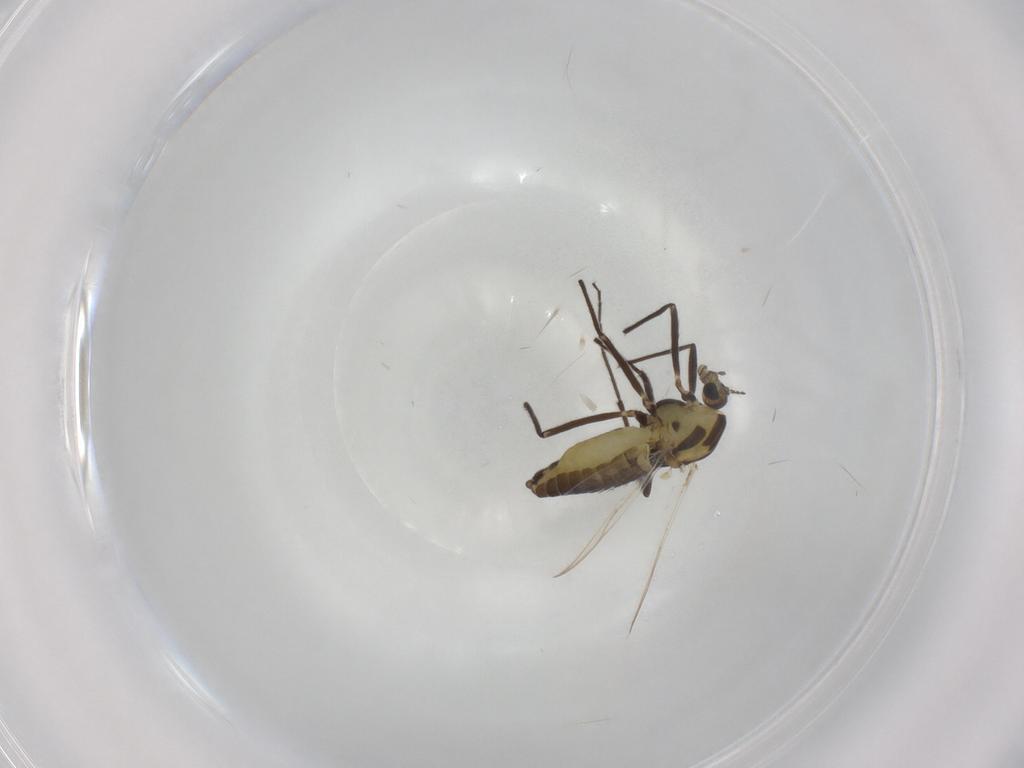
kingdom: Animalia
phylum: Arthropoda
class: Insecta
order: Diptera
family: Chironomidae
